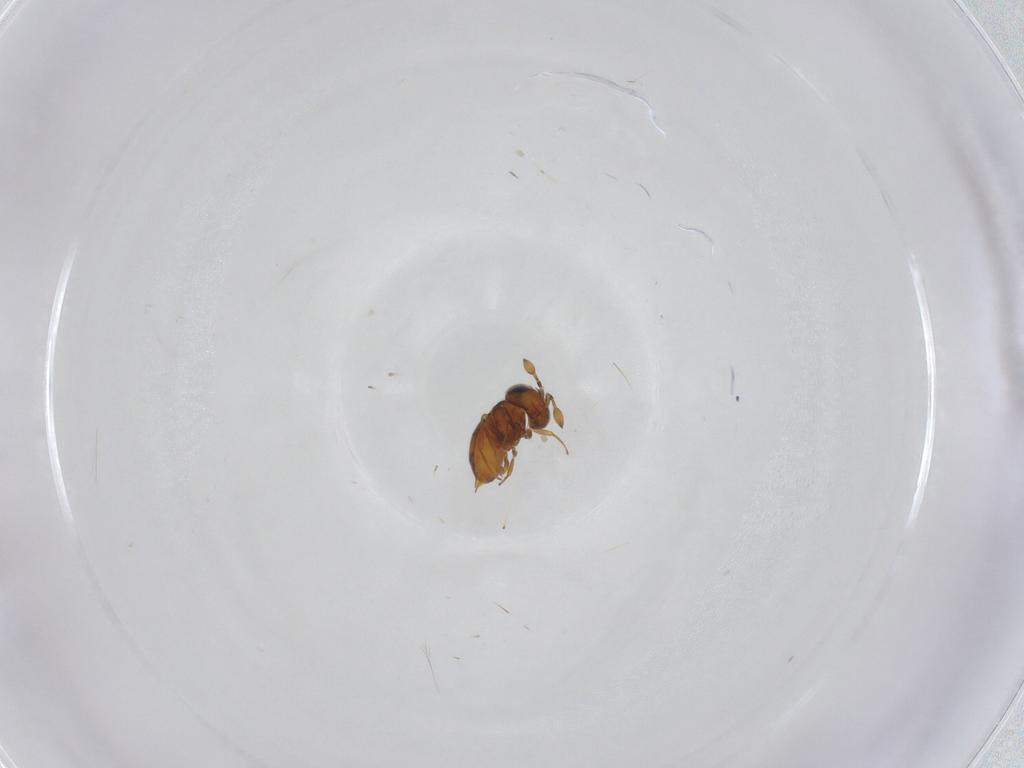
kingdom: Animalia
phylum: Arthropoda
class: Insecta
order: Hymenoptera
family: Scelionidae
